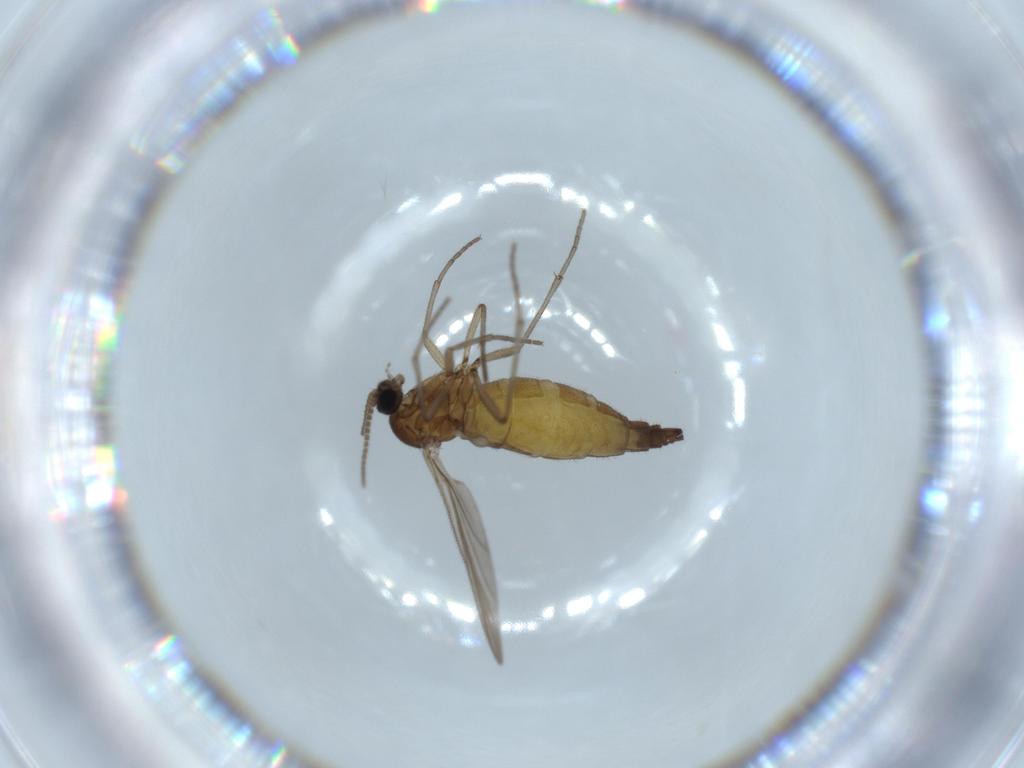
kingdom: Animalia
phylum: Arthropoda
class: Insecta
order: Diptera
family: Sciaridae
